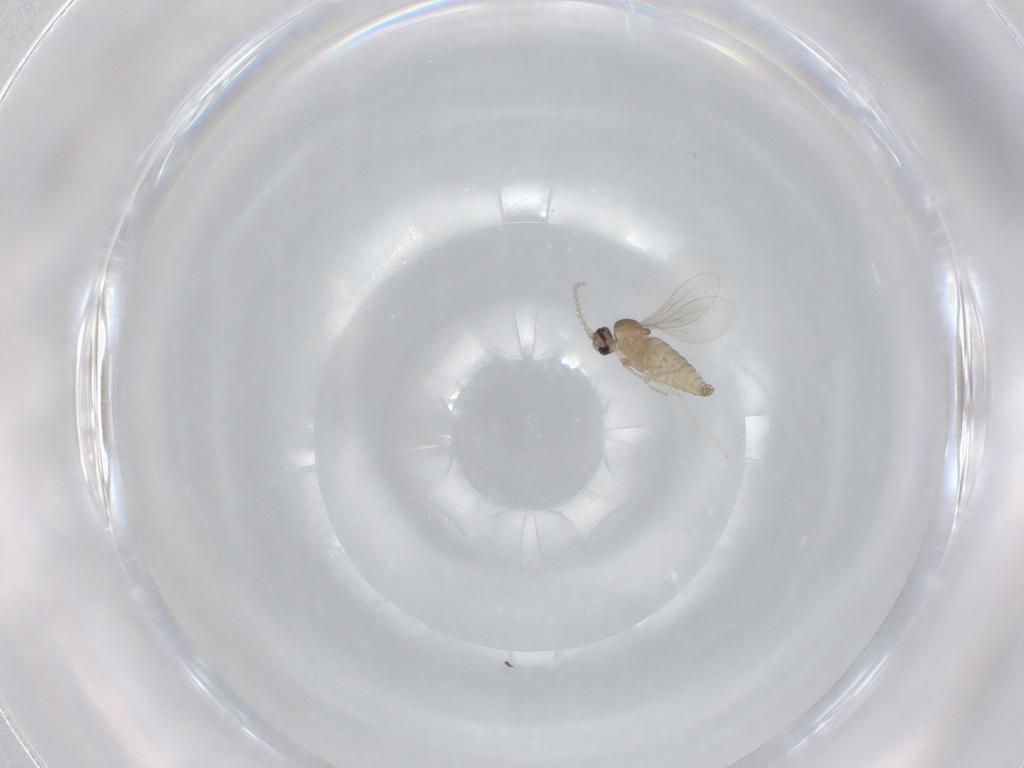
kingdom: Animalia
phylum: Arthropoda
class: Insecta
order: Diptera
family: Cecidomyiidae
